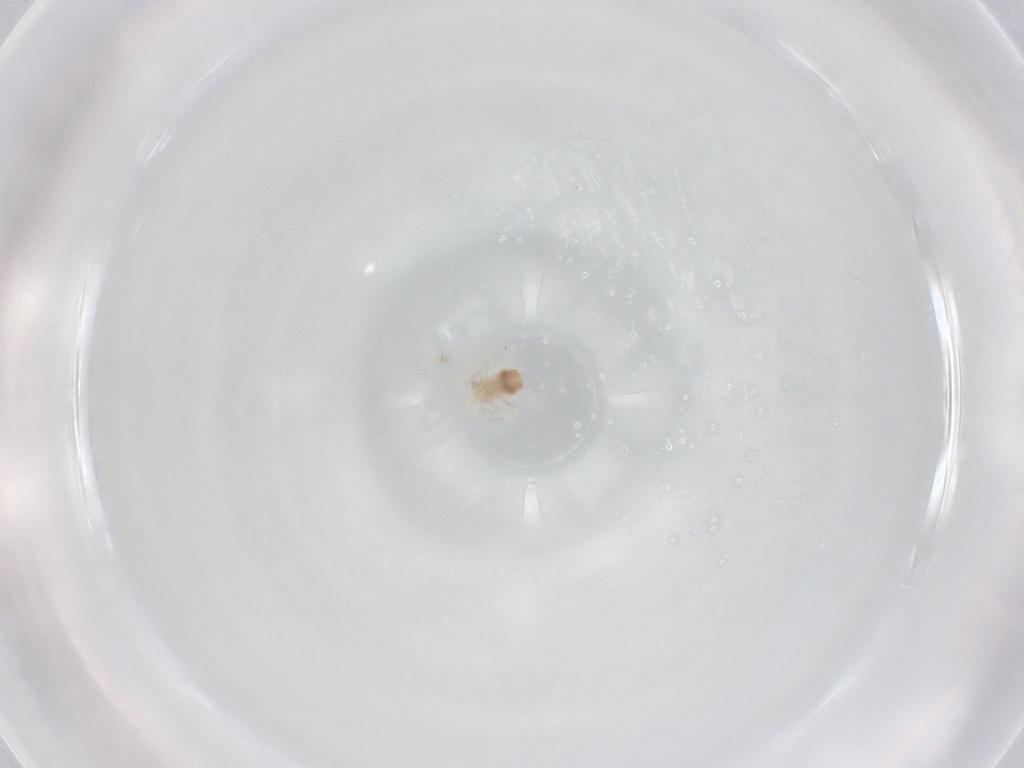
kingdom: Animalia
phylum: Arthropoda
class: Arachnida
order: Trombidiformes
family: Anystidae
